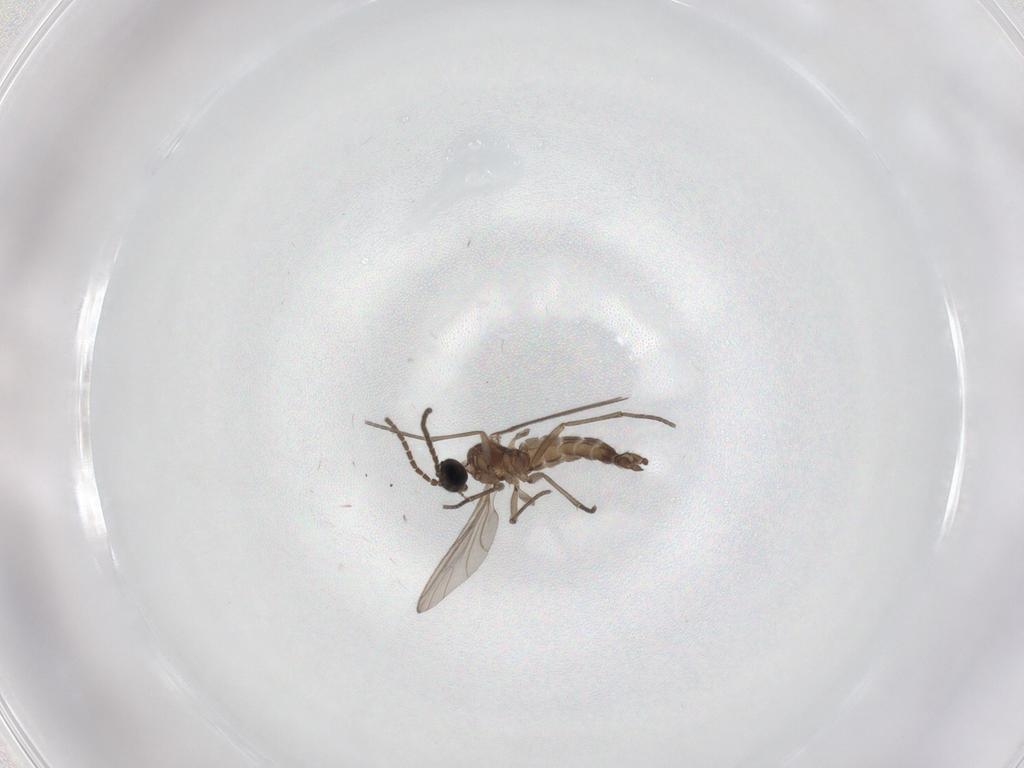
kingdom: Animalia
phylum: Arthropoda
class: Insecta
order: Diptera
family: Sciaridae
